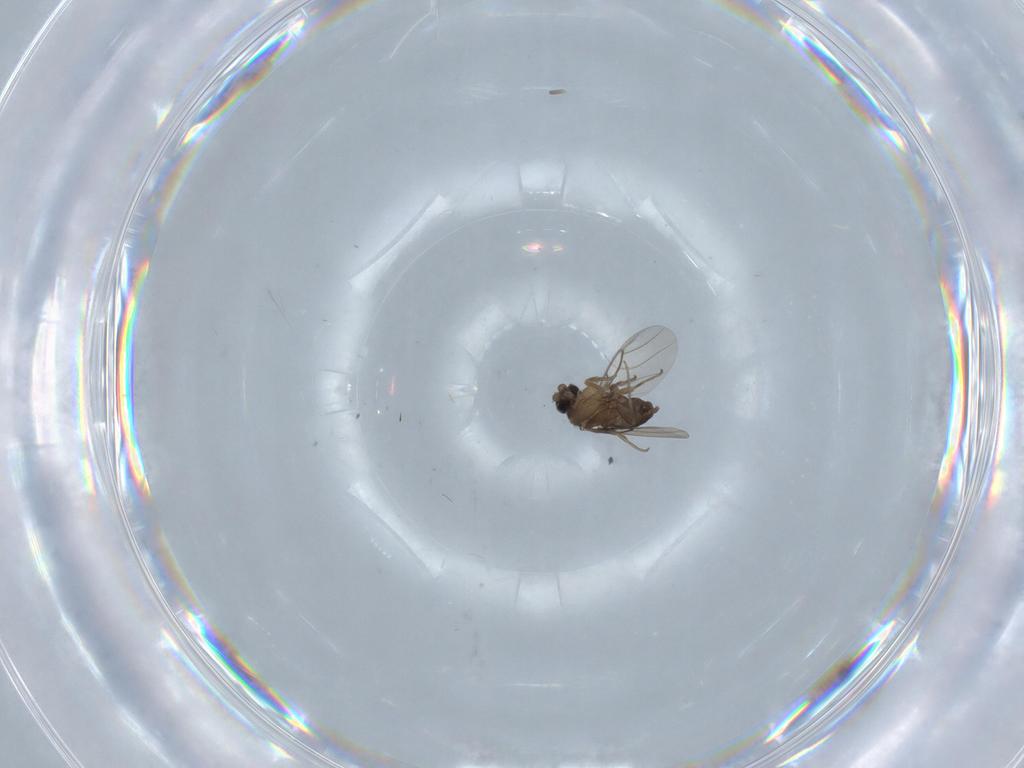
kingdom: Animalia
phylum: Arthropoda
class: Insecta
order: Diptera
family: Phoridae
